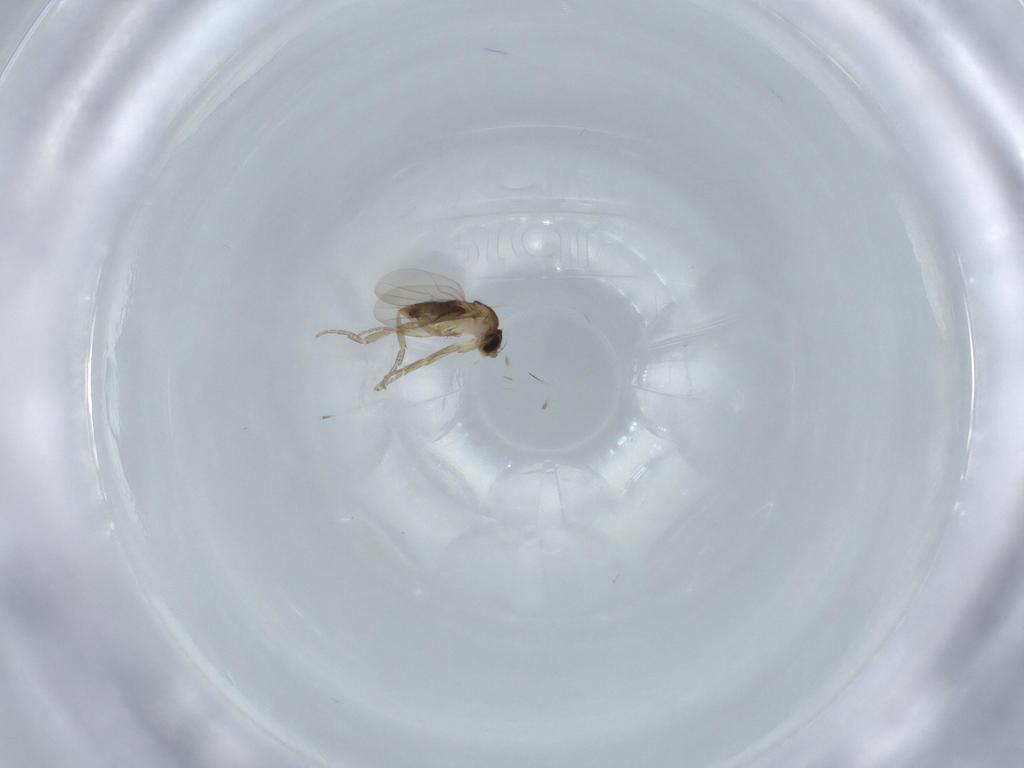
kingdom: Animalia
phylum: Arthropoda
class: Insecta
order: Diptera
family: Phoridae
